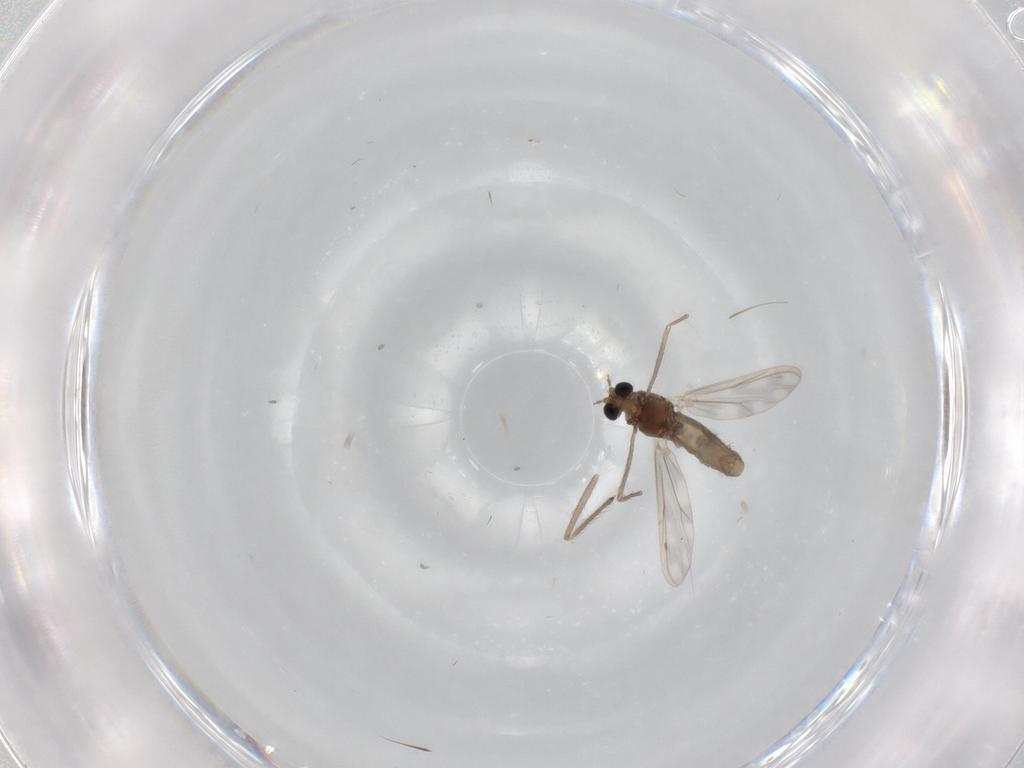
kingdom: Animalia
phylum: Arthropoda
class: Insecta
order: Diptera
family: Chironomidae
